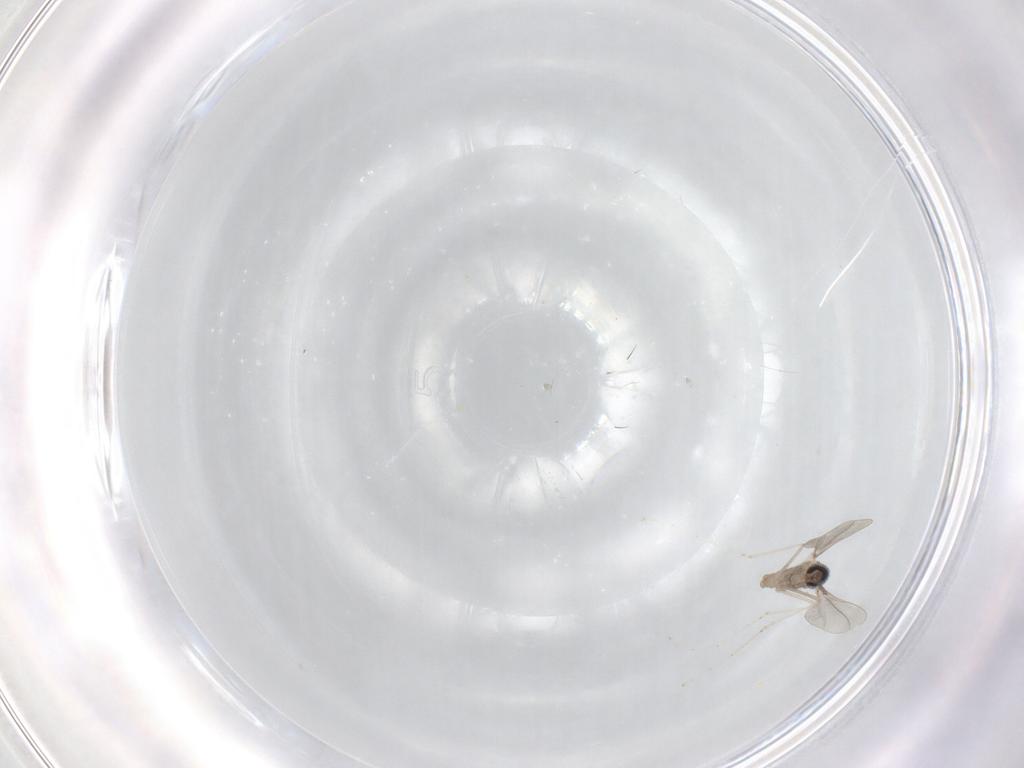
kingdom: Animalia
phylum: Arthropoda
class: Insecta
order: Diptera
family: Cecidomyiidae
